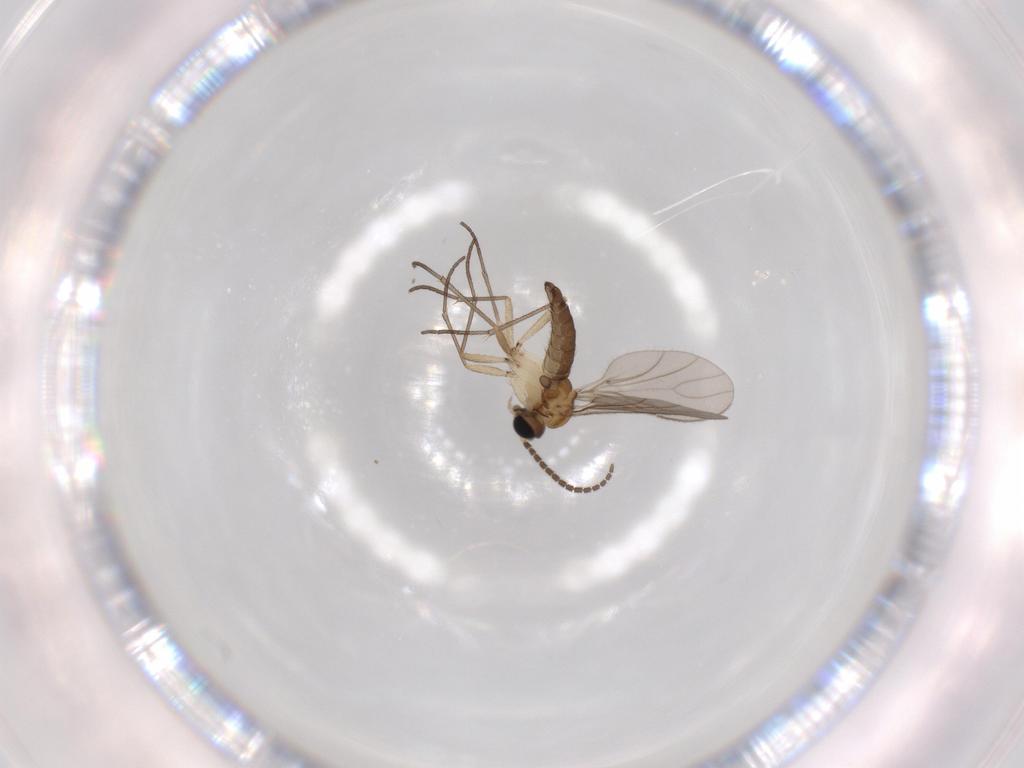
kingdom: Animalia
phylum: Arthropoda
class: Insecta
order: Diptera
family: Sciaridae
